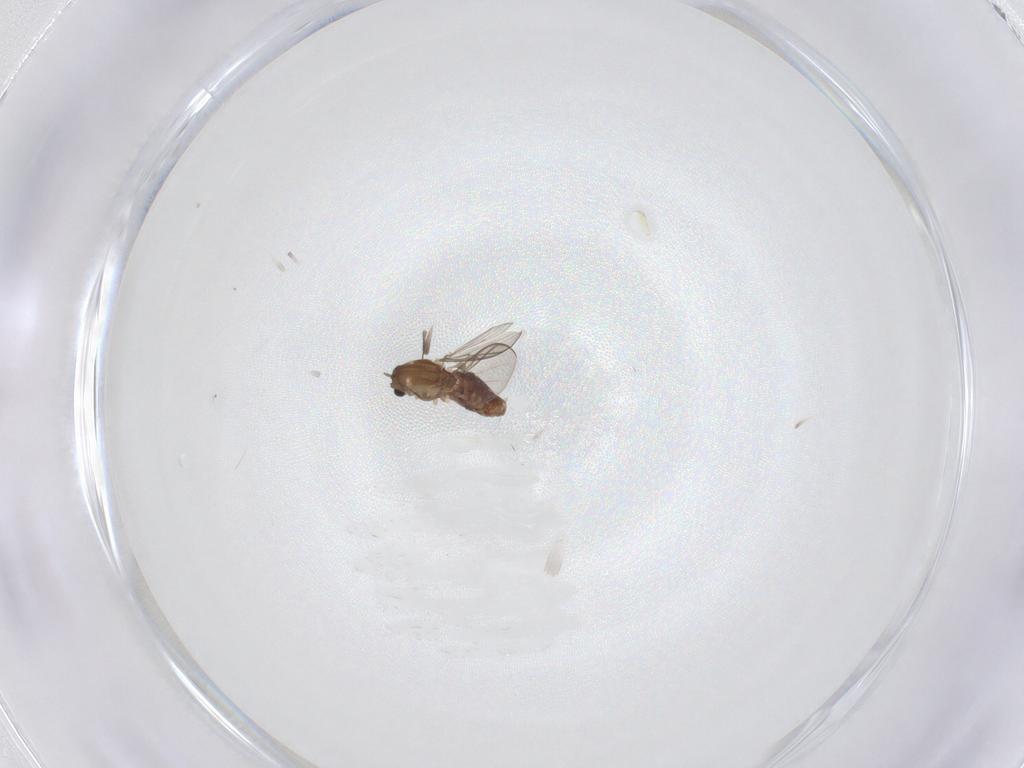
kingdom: Animalia
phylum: Arthropoda
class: Insecta
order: Diptera
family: Chironomidae
